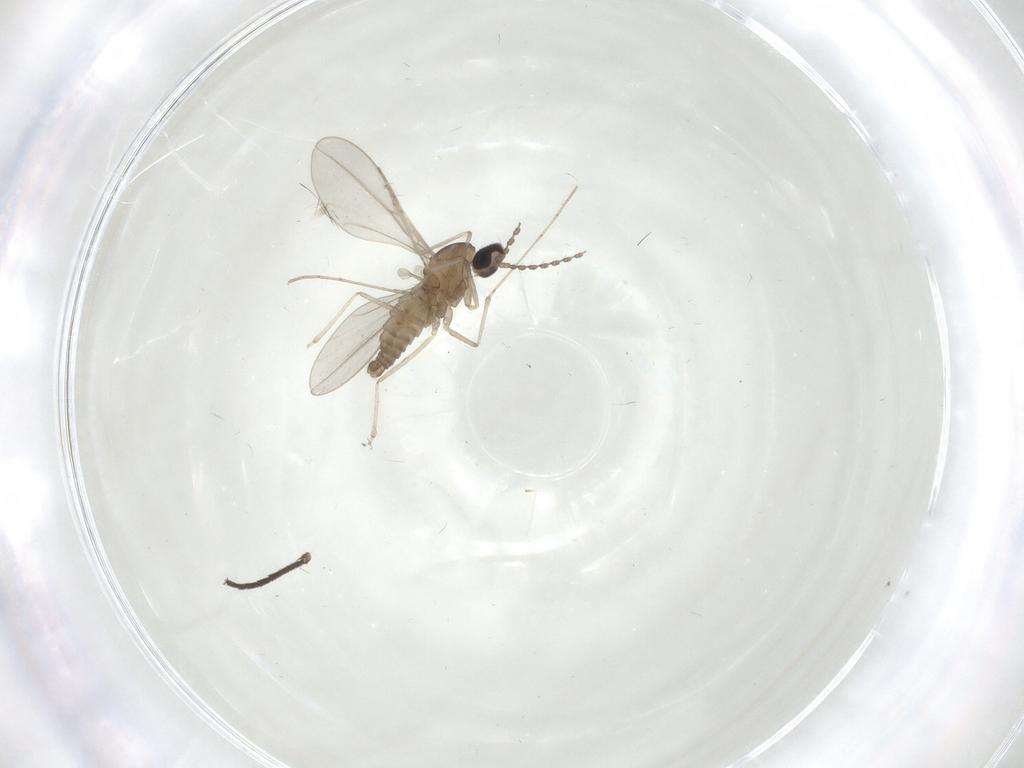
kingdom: Animalia
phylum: Arthropoda
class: Insecta
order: Diptera
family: Cecidomyiidae
